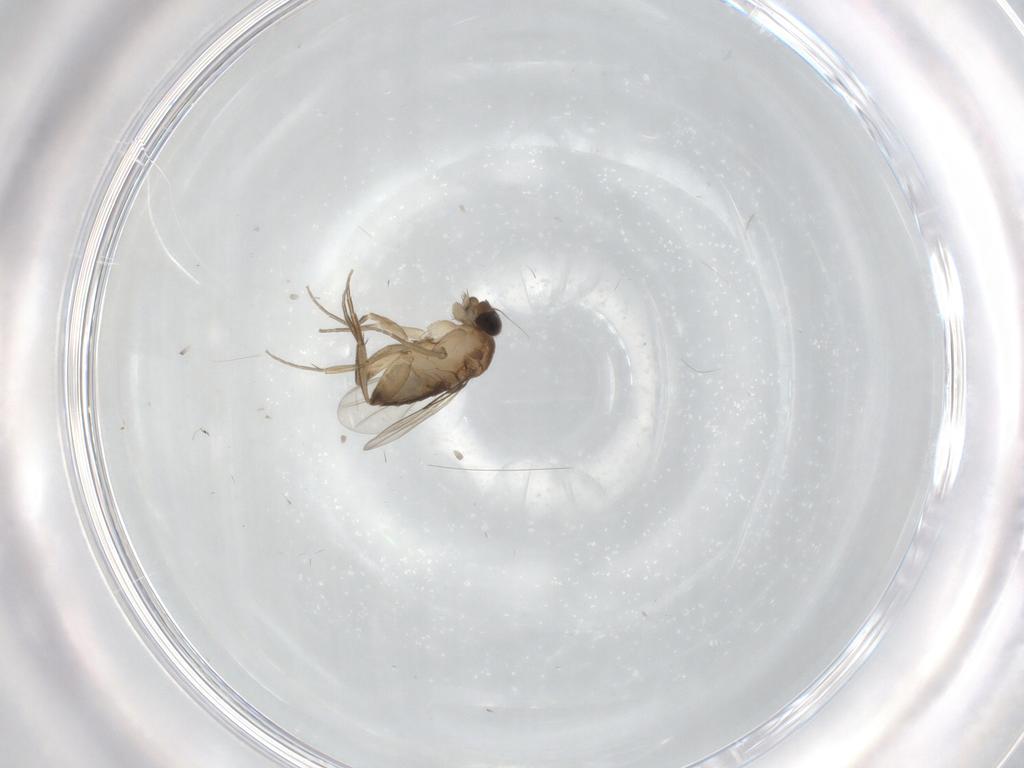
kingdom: Animalia
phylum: Arthropoda
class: Insecta
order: Diptera
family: Phoridae
